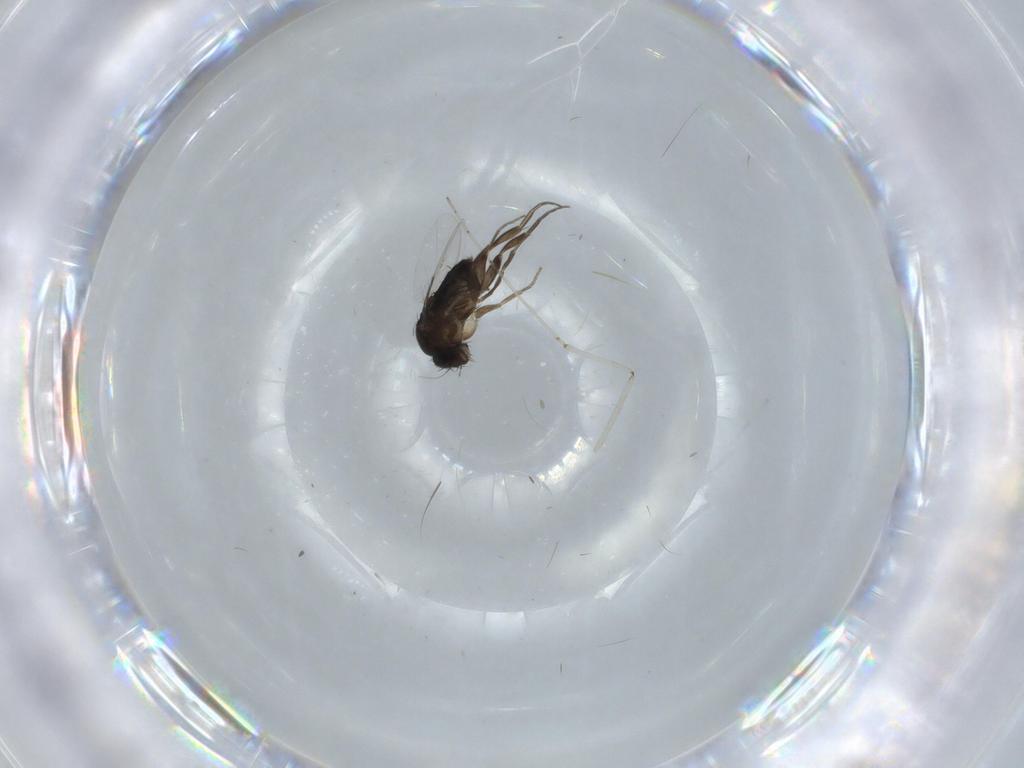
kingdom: Animalia
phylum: Arthropoda
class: Insecta
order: Diptera
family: Phoridae
